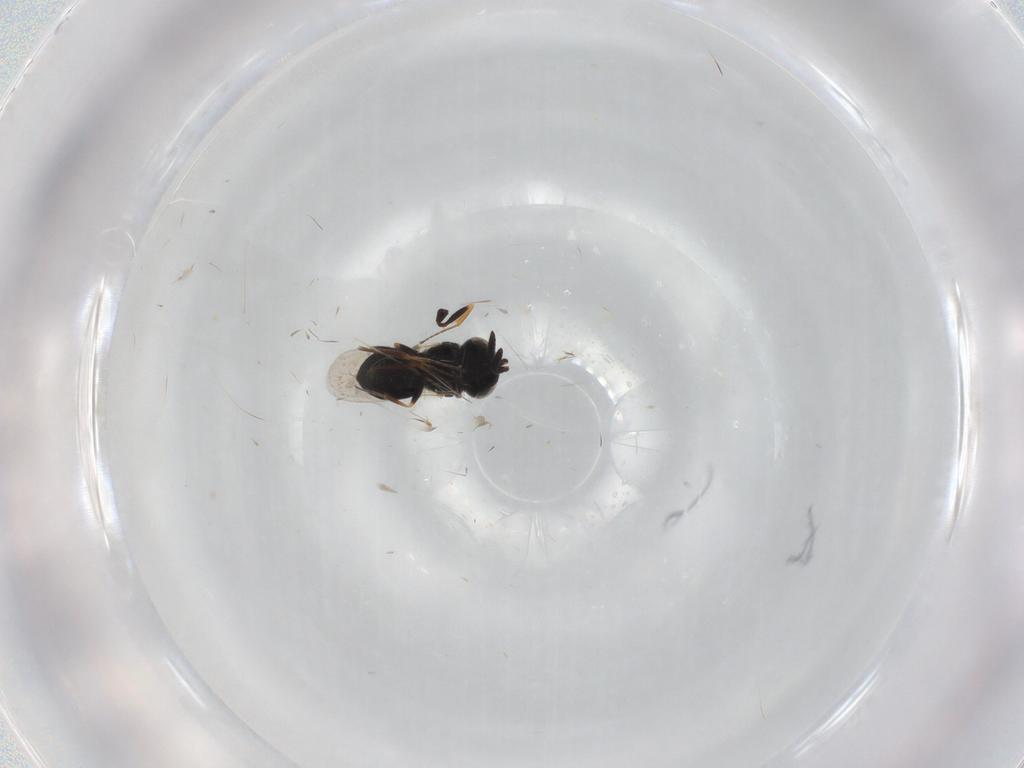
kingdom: Animalia
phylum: Arthropoda
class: Insecta
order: Hymenoptera
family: Scelionidae
